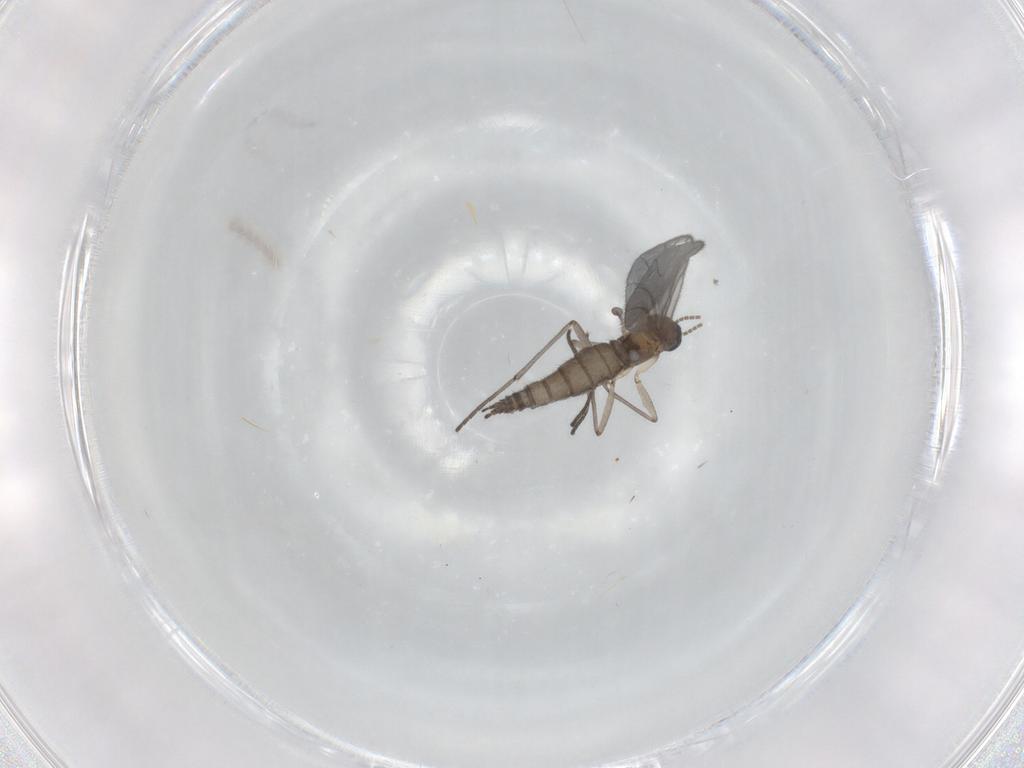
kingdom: Animalia
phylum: Arthropoda
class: Insecta
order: Diptera
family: Sciaridae
